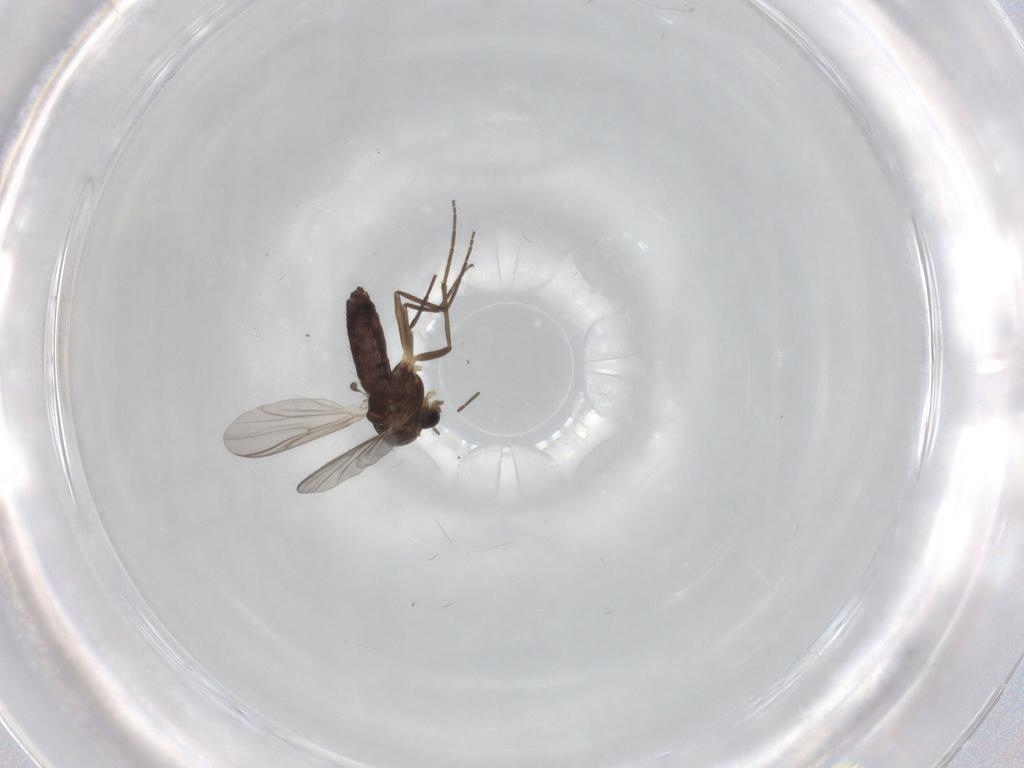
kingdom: Animalia
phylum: Arthropoda
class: Insecta
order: Diptera
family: Chironomidae
